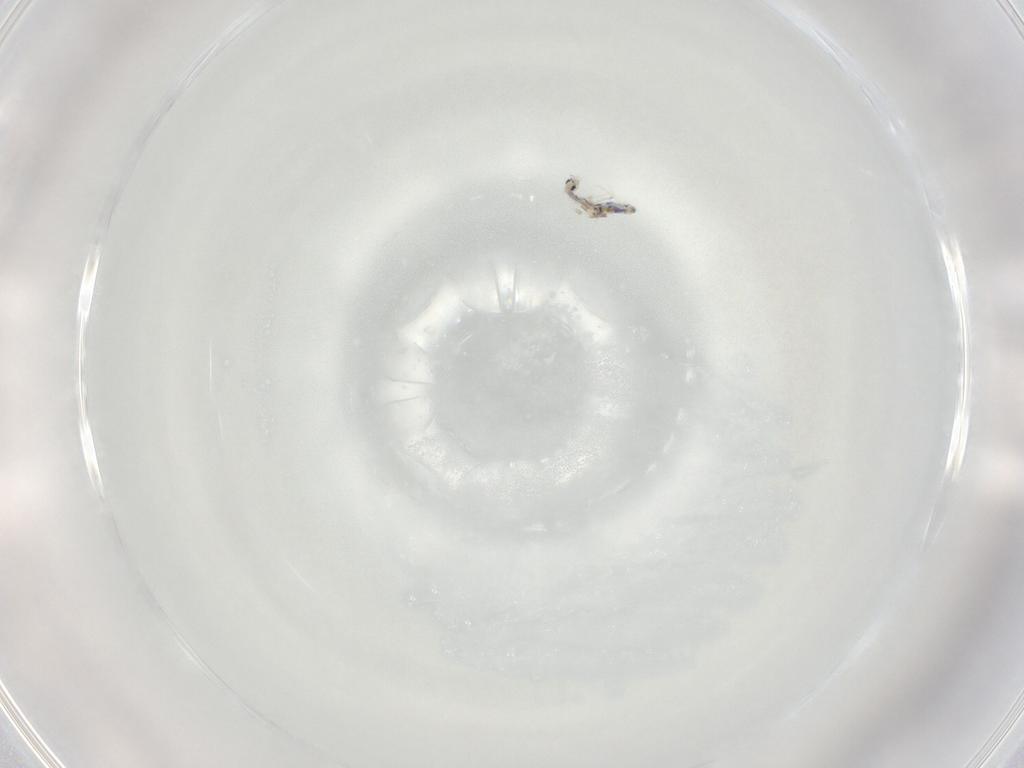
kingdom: Animalia
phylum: Arthropoda
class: Collembola
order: Entomobryomorpha
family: Entomobryidae
